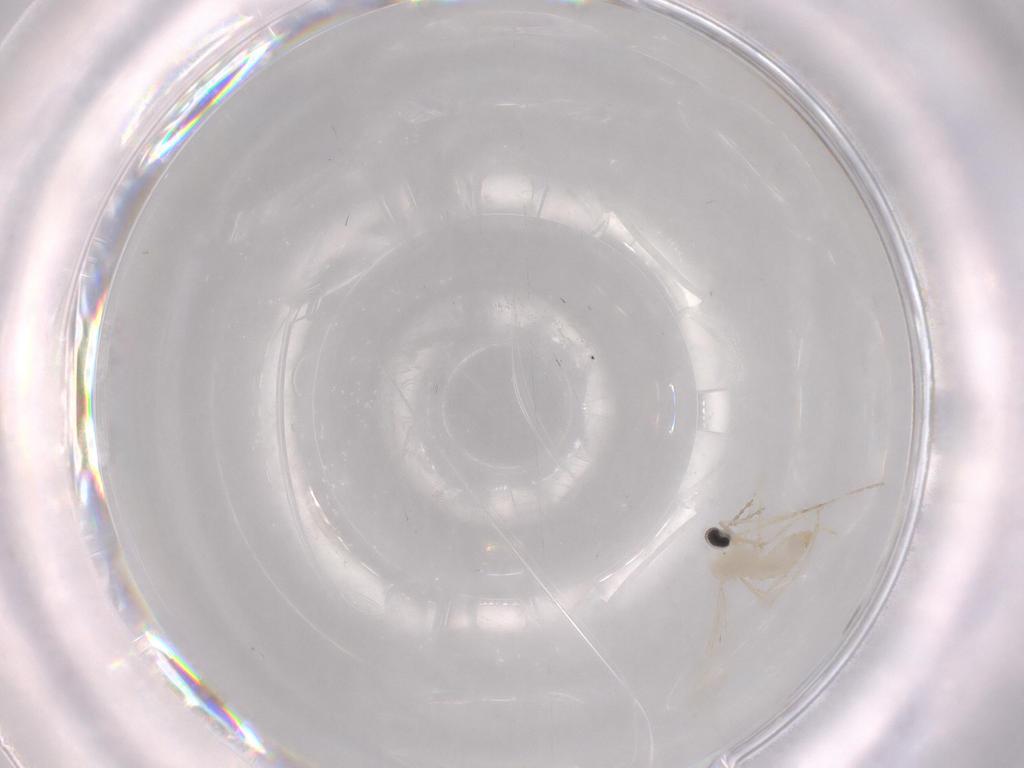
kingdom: Animalia
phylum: Arthropoda
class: Insecta
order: Diptera
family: Cecidomyiidae
